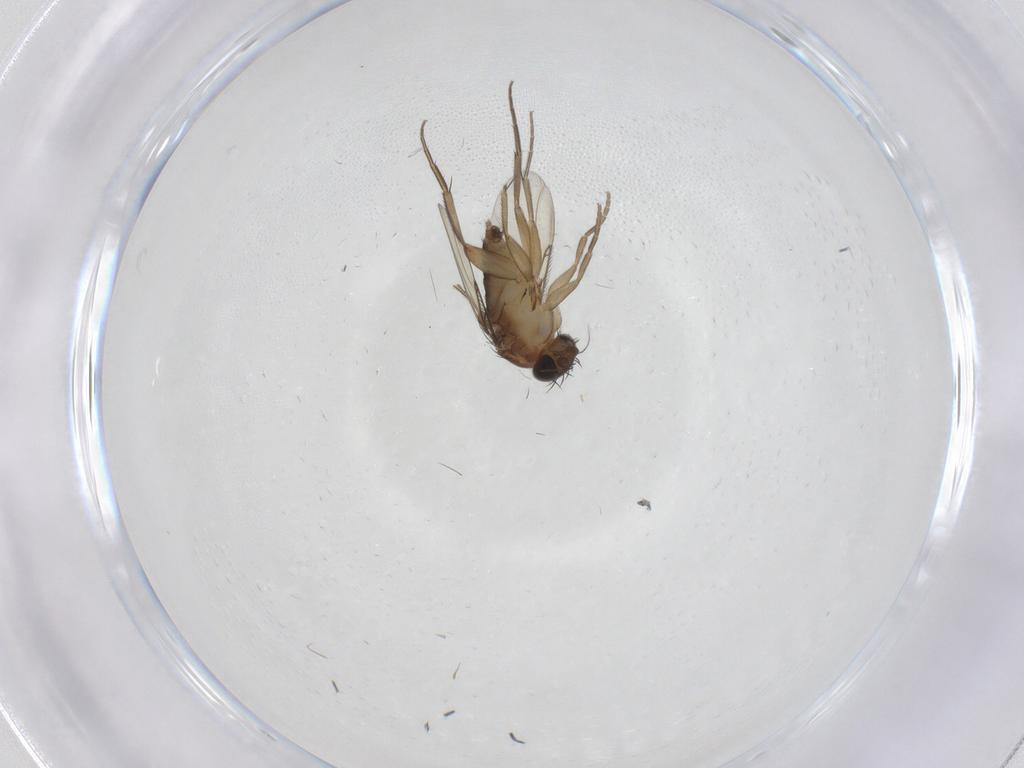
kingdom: Animalia
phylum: Arthropoda
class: Insecta
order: Diptera
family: Phoridae
